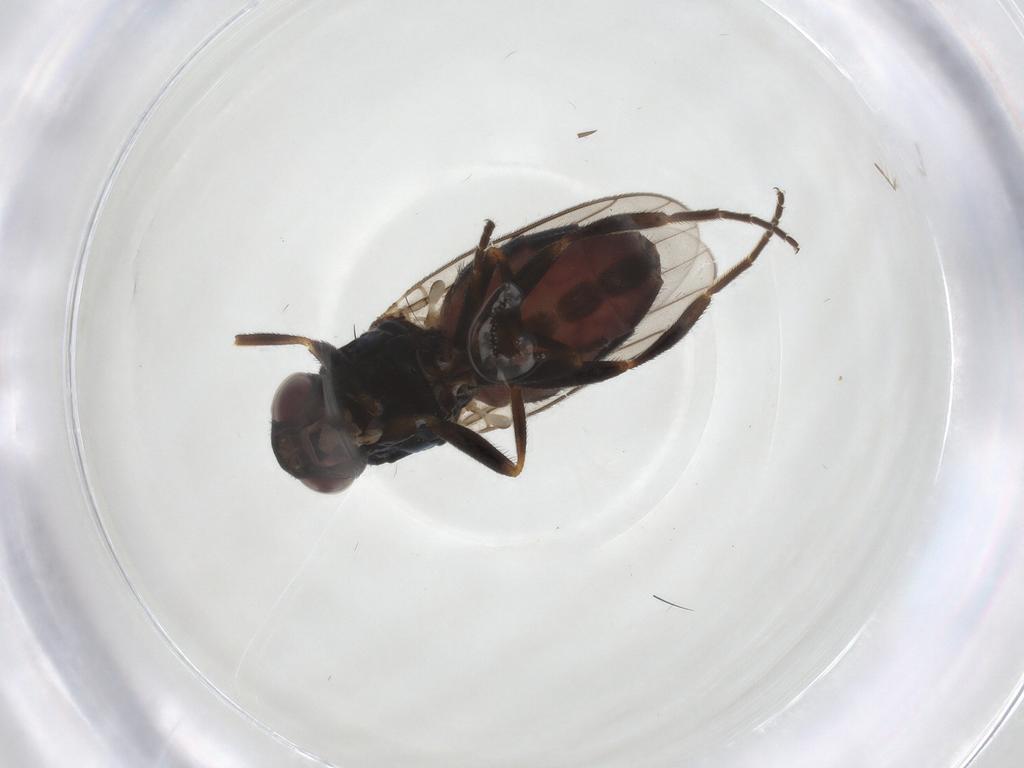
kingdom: Animalia
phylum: Arthropoda
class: Insecta
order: Diptera
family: Chloropidae
